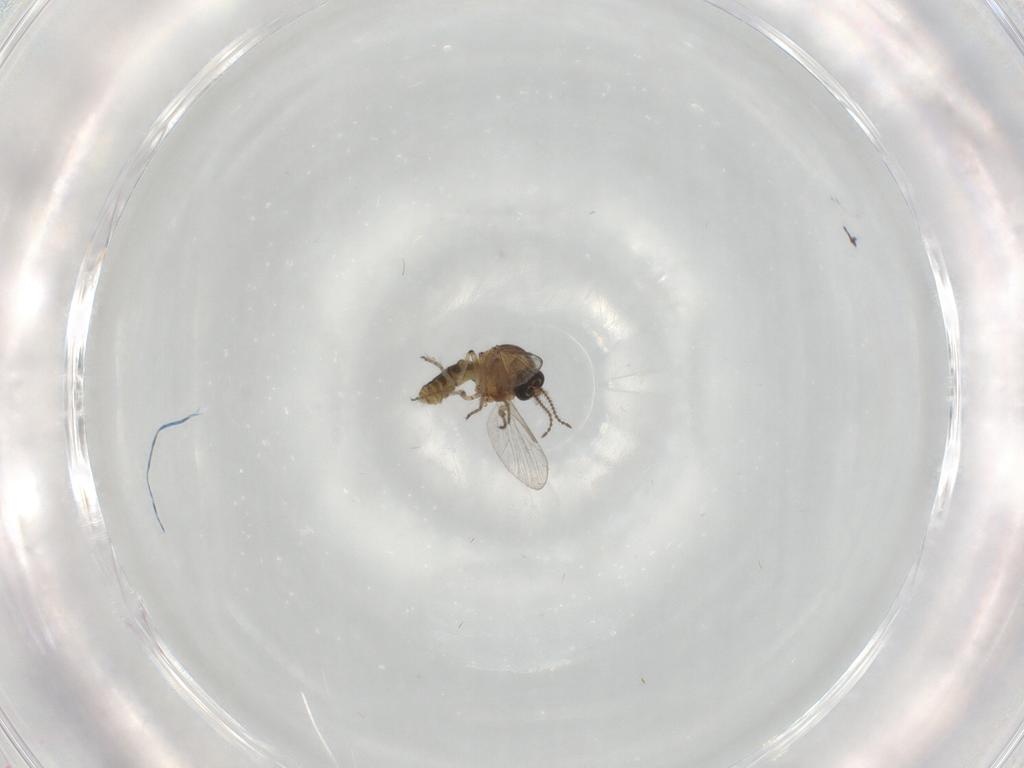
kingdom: Animalia
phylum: Arthropoda
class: Insecta
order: Diptera
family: Ceratopogonidae
